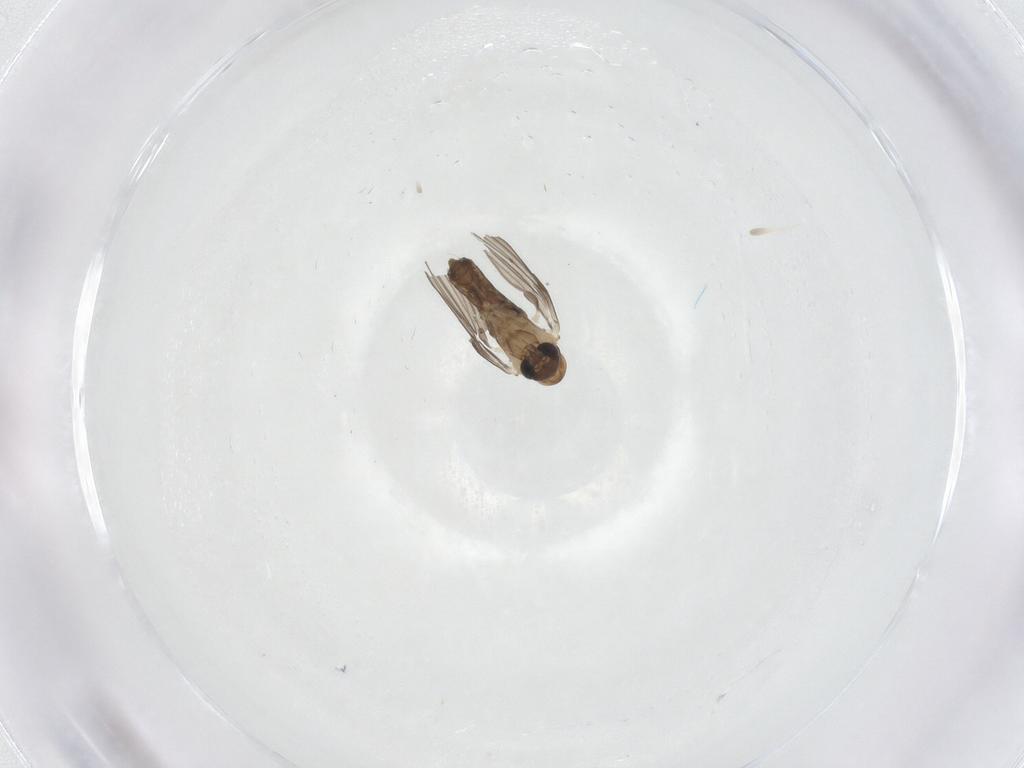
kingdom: Animalia
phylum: Arthropoda
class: Insecta
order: Diptera
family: Psychodidae
